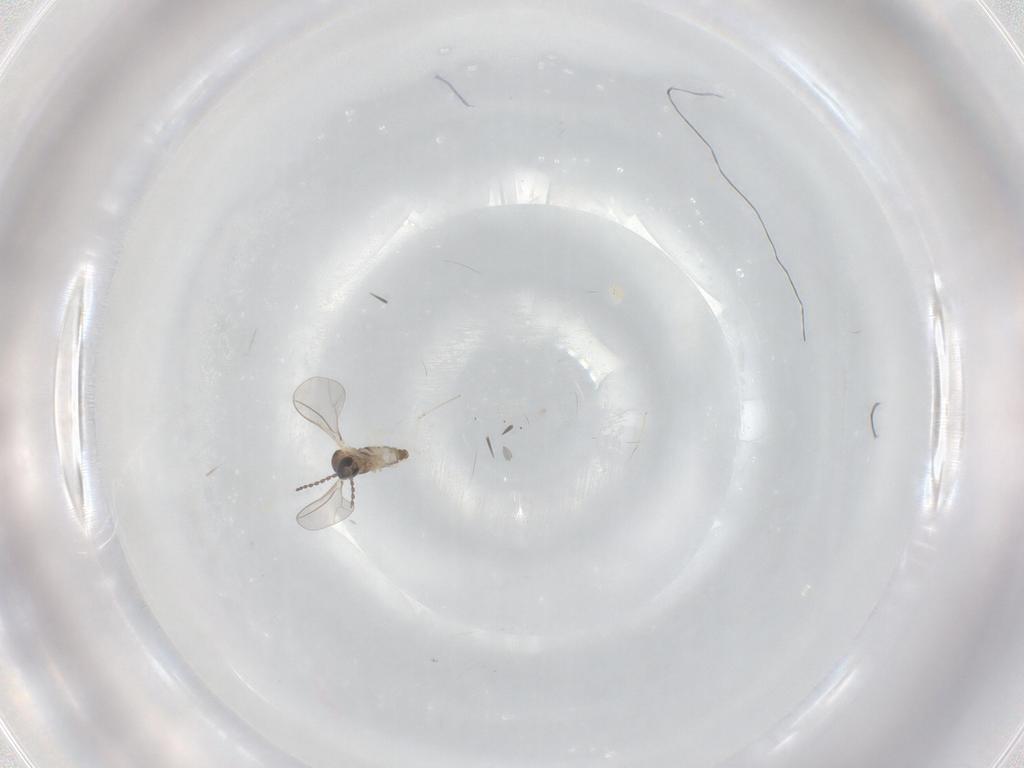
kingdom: Animalia
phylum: Arthropoda
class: Insecta
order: Diptera
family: Cecidomyiidae
